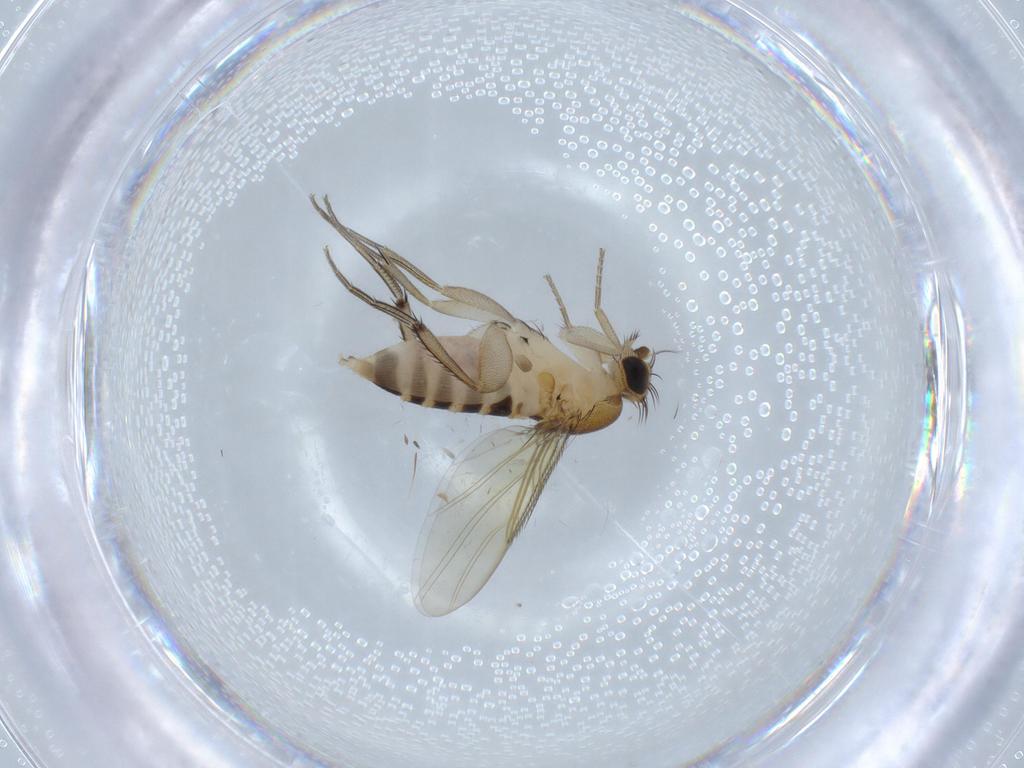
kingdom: Animalia
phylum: Arthropoda
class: Insecta
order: Diptera
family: Phoridae
